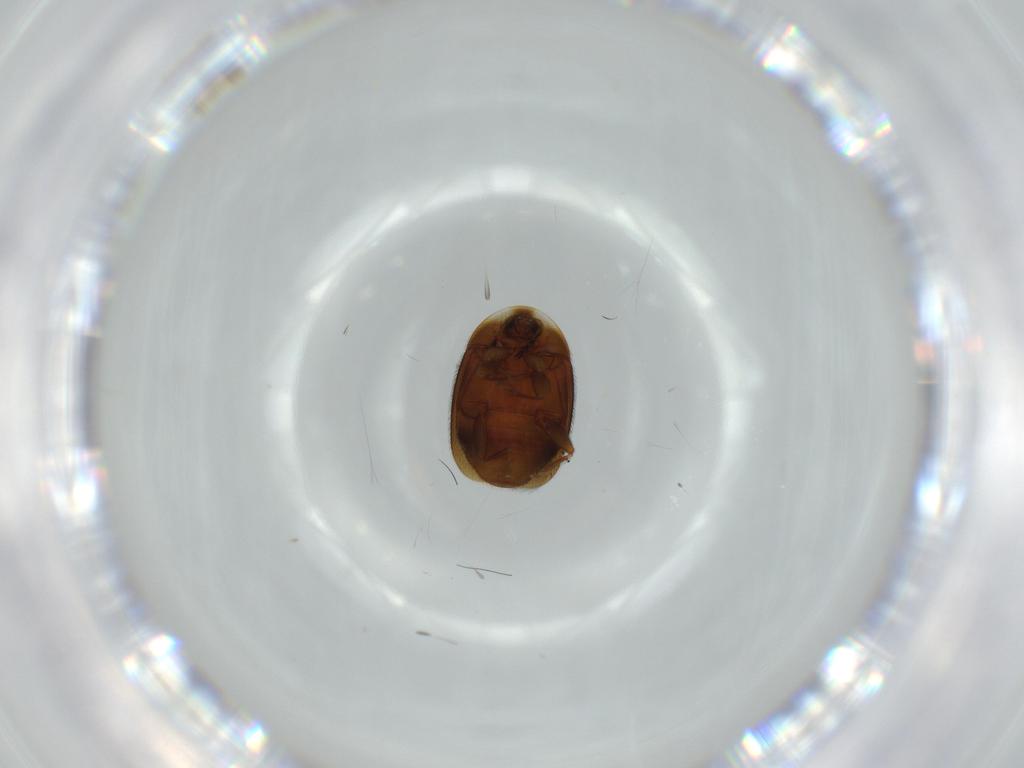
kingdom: Animalia
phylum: Arthropoda
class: Insecta
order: Coleoptera
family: Corylophidae
